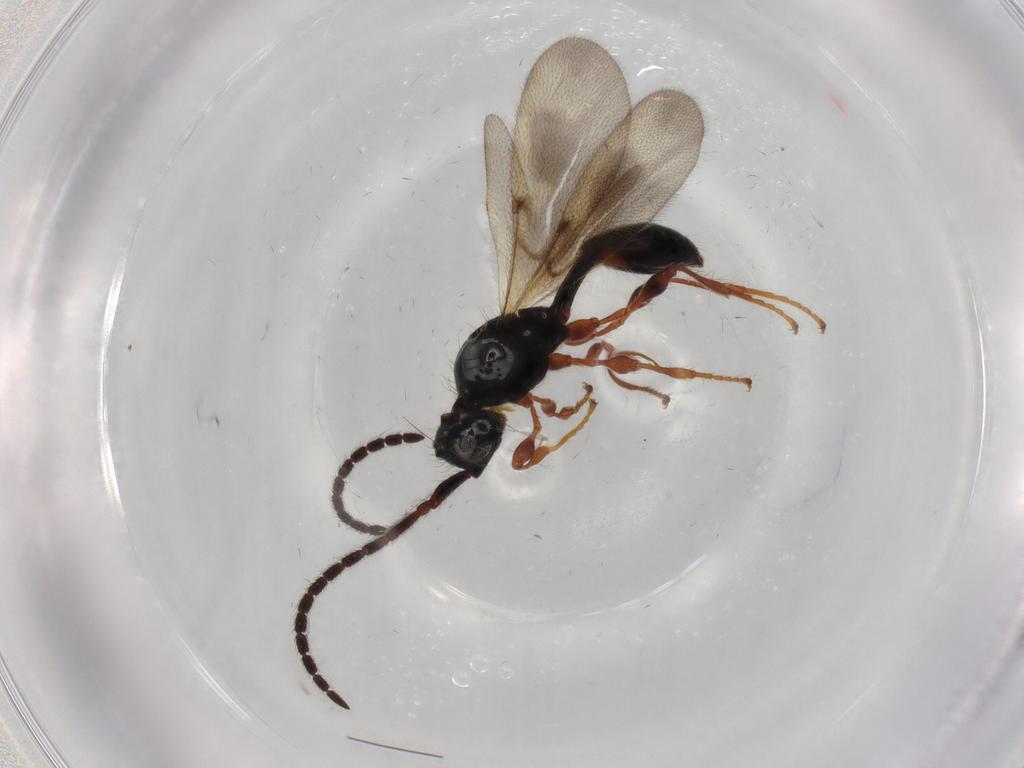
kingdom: Animalia
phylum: Arthropoda
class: Insecta
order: Hymenoptera
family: Diapriidae
